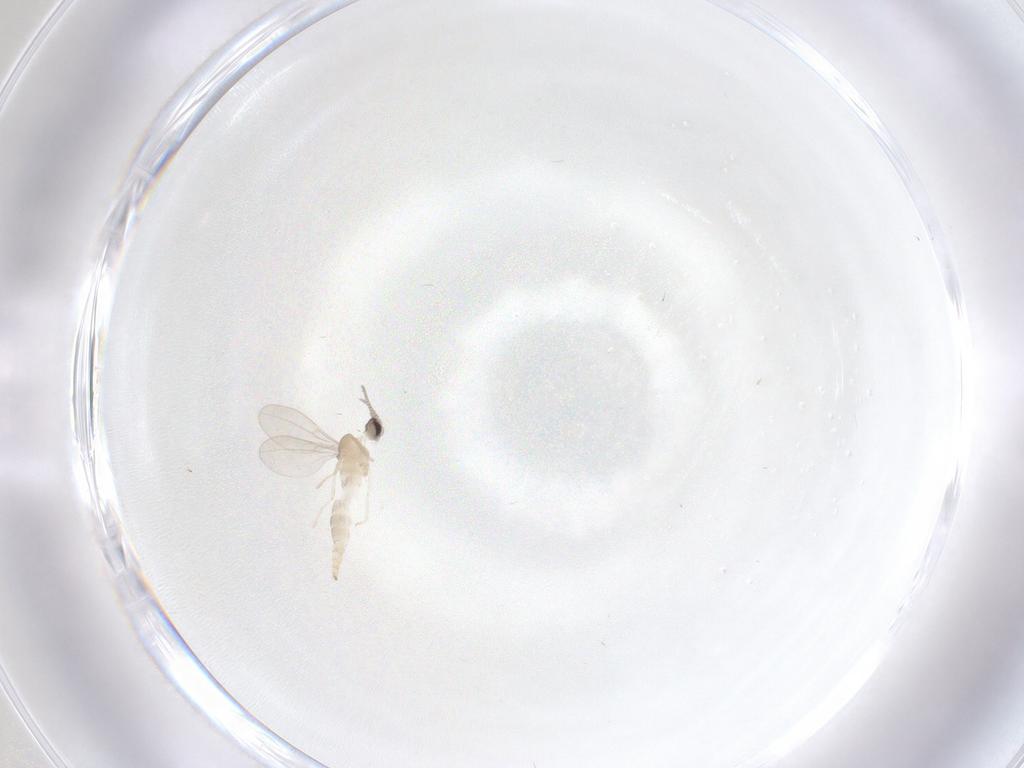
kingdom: Animalia
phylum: Arthropoda
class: Insecta
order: Diptera
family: Cecidomyiidae
